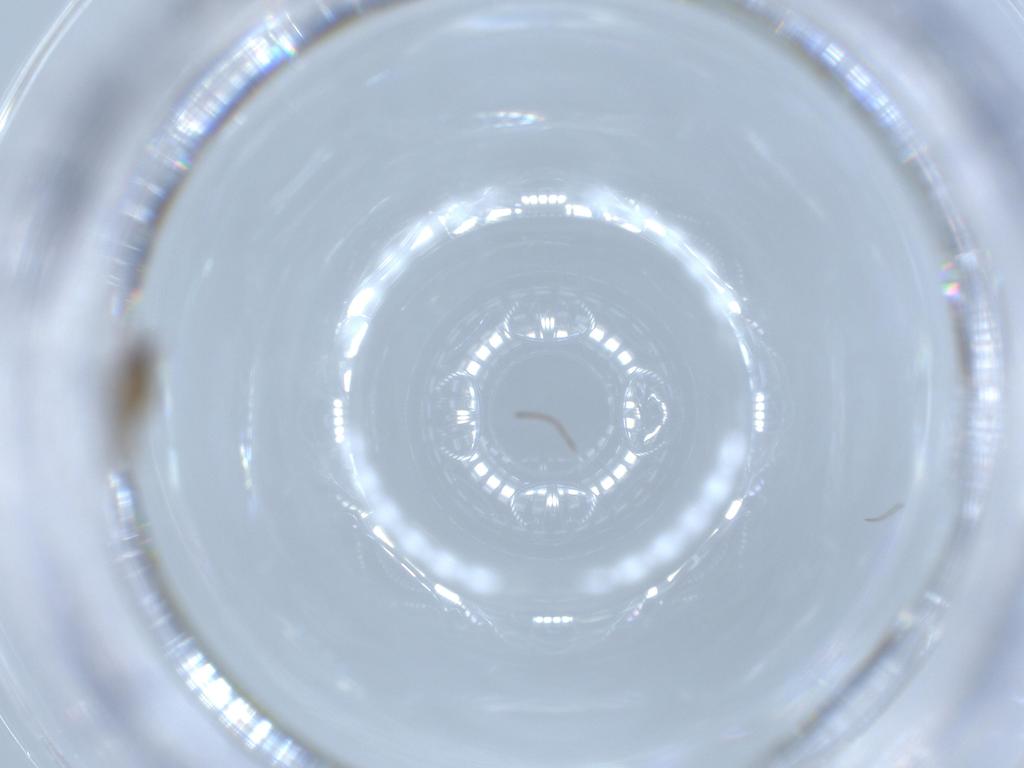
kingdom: Animalia
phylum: Arthropoda
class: Insecta
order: Diptera
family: Cecidomyiidae
